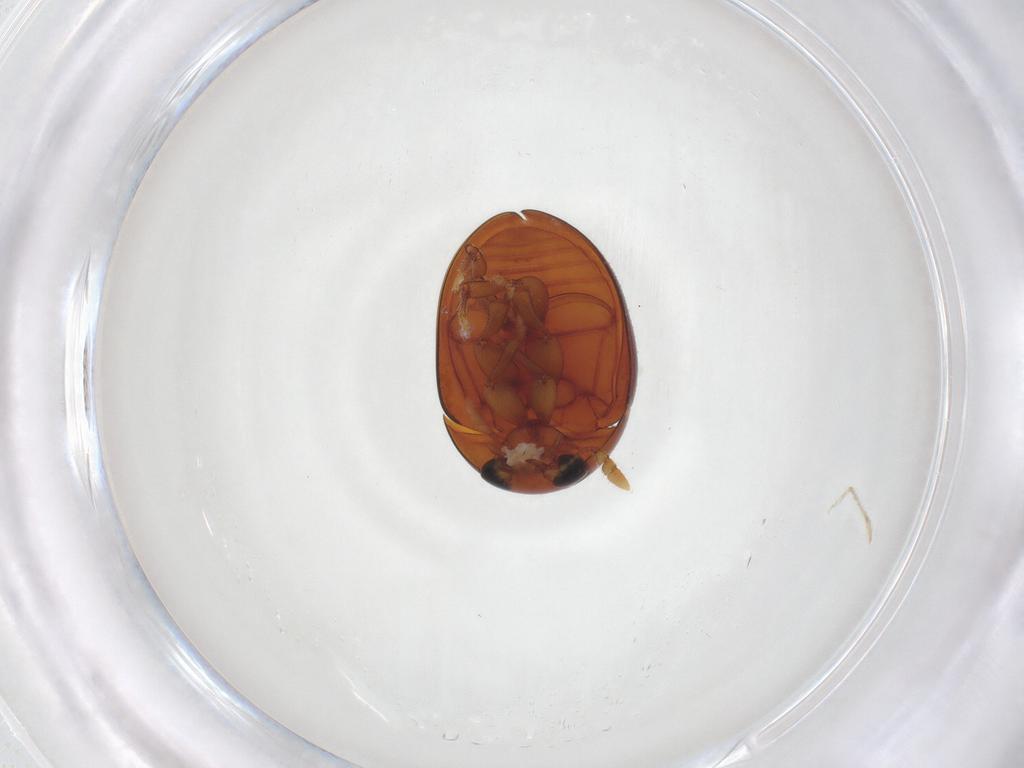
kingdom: Animalia
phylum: Arthropoda
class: Insecta
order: Coleoptera
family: Phalacridae
